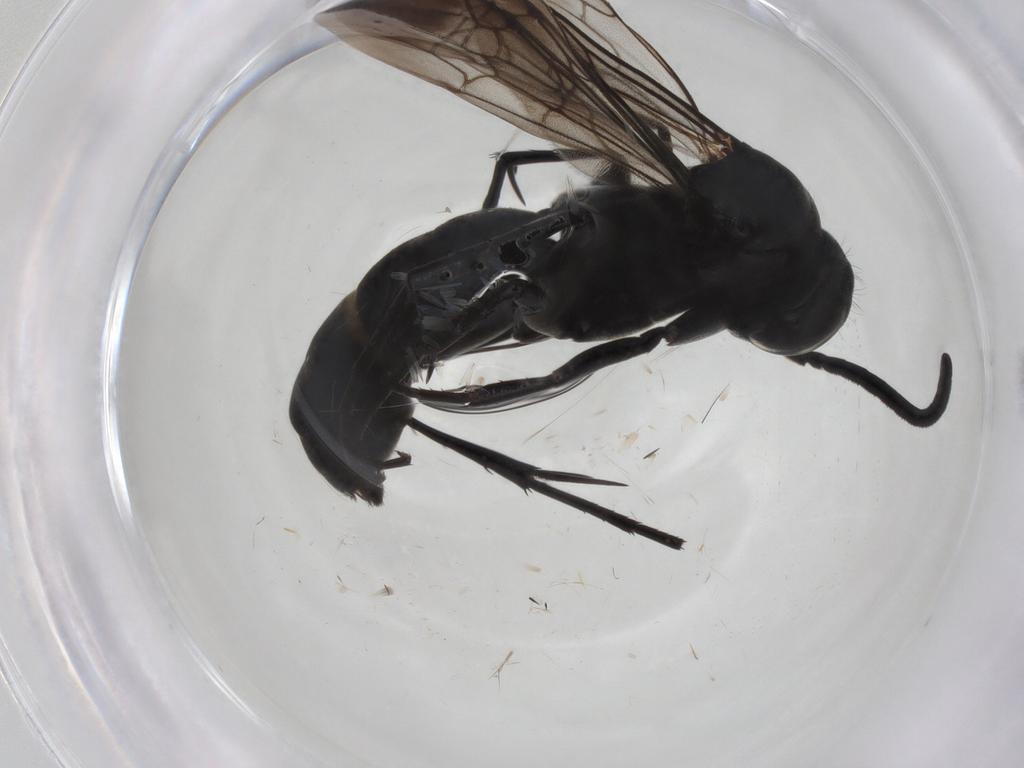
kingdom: Animalia
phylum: Arthropoda
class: Insecta
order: Hymenoptera
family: Pompilidae
